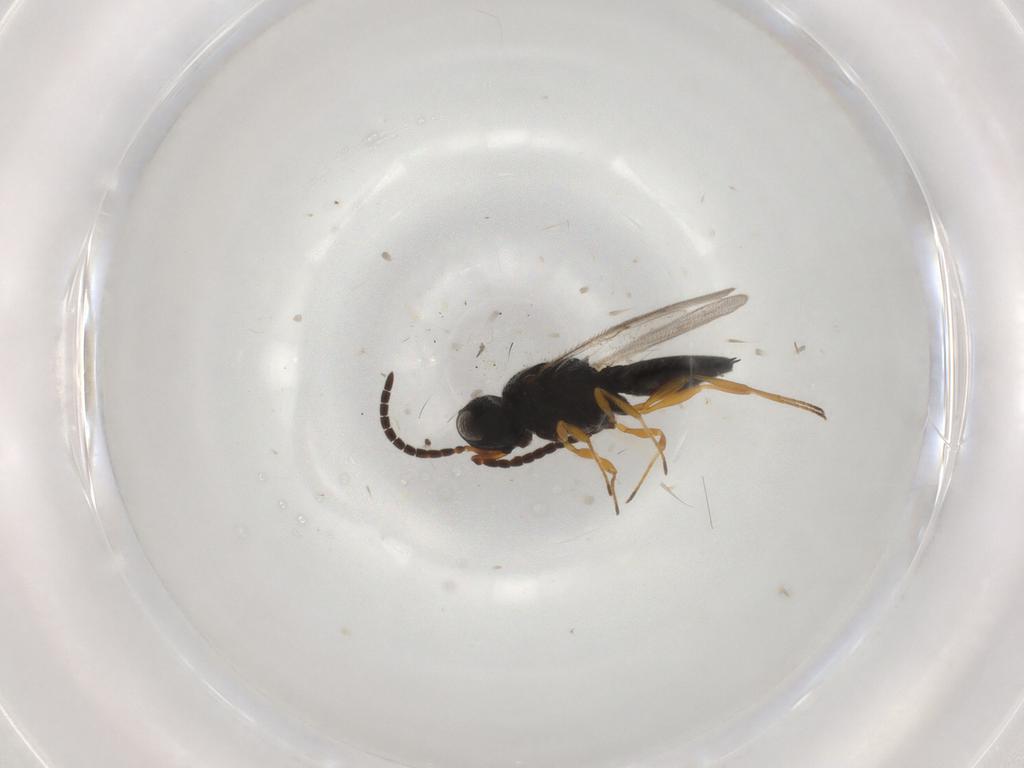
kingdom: Animalia
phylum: Arthropoda
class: Insecta
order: Hymenoptera
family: Scelionidae
